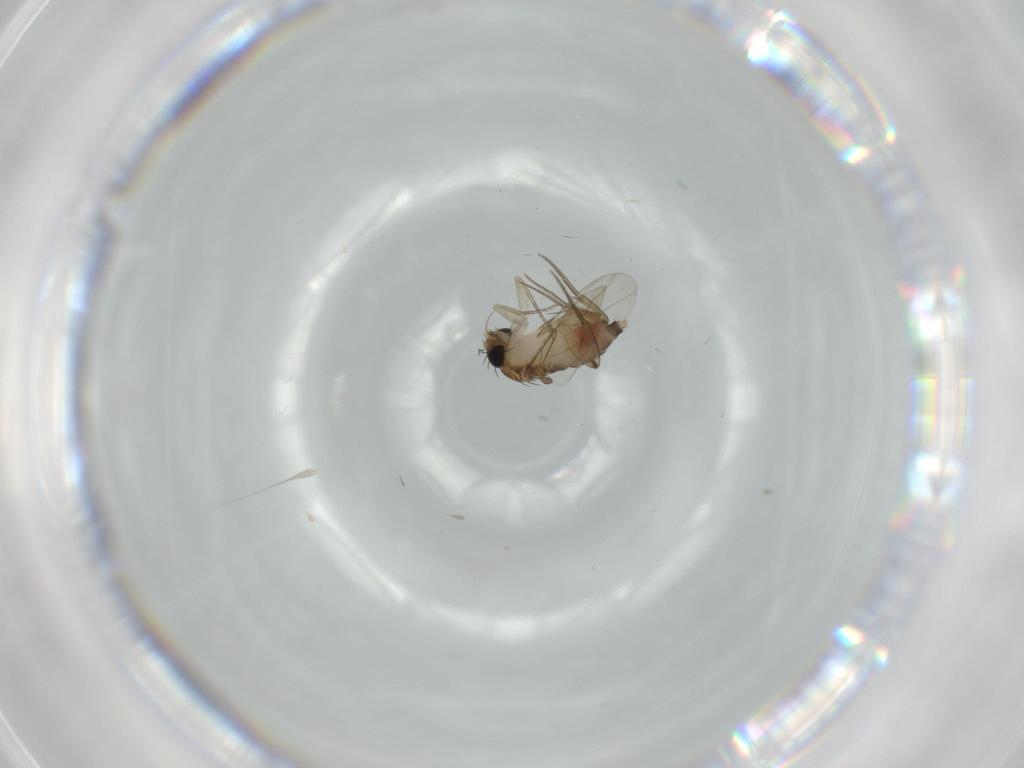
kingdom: Animalia
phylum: Arthropoda
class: Insecta
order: Diptera
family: Phoridae
